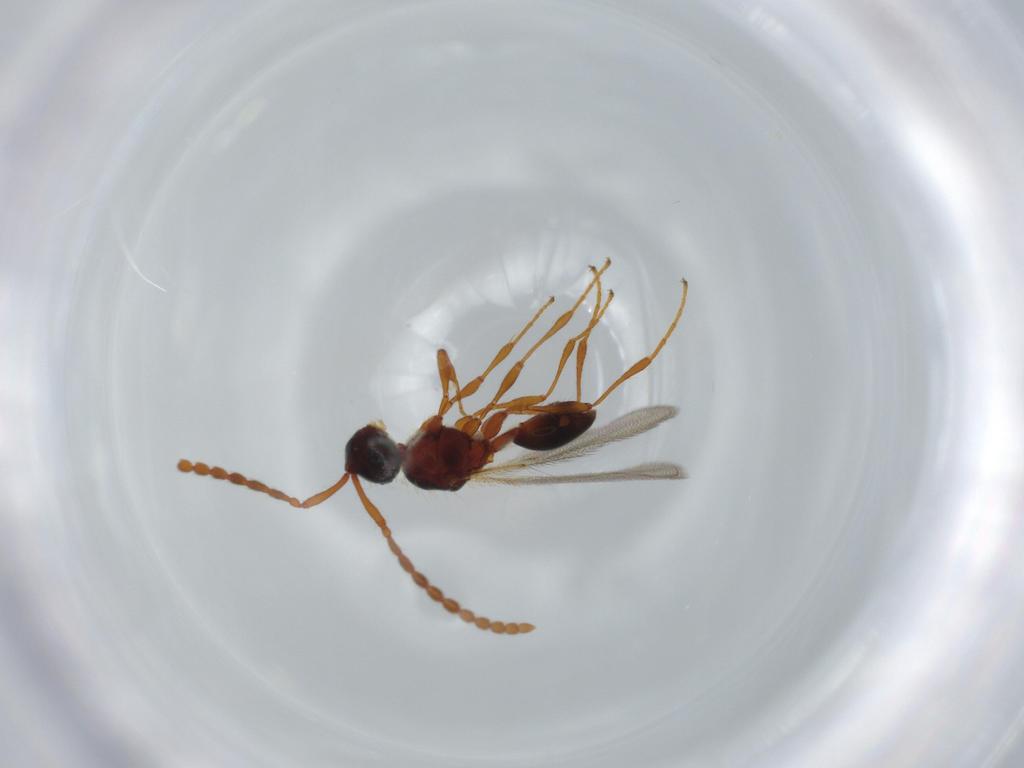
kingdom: Animalia
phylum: Arthropoda
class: Insecta
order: Hymenoptera
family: Diapriidae
